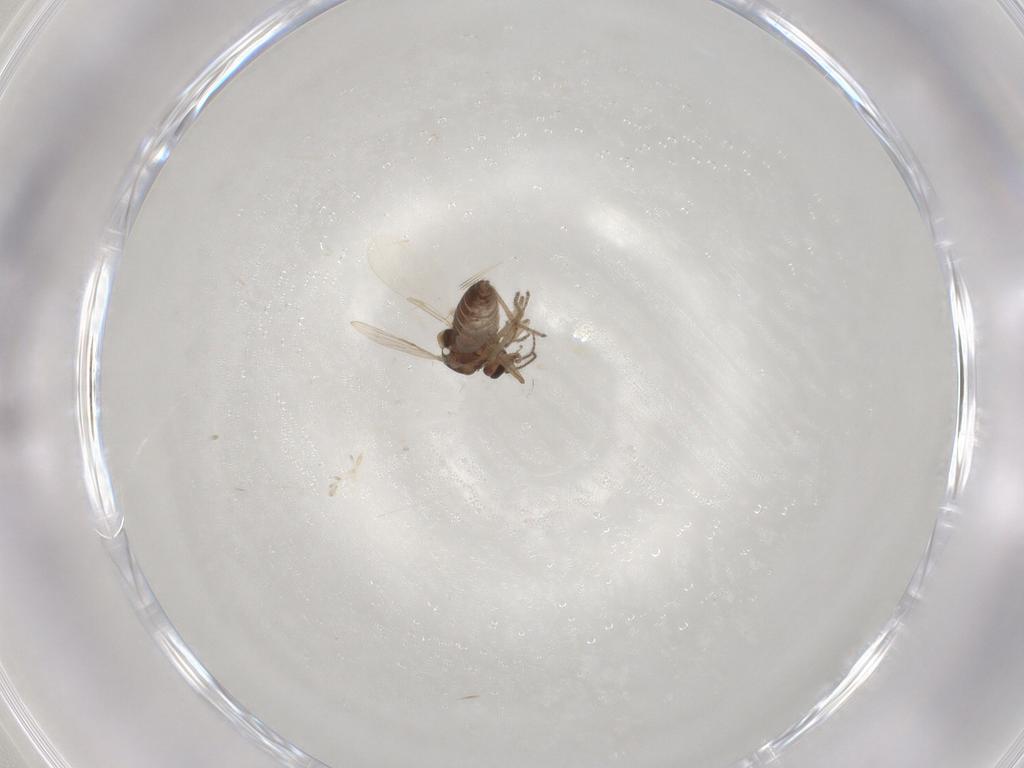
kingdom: Animalia
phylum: Arthropoda
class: Insecta
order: Diptera
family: Ceratopogonidae
